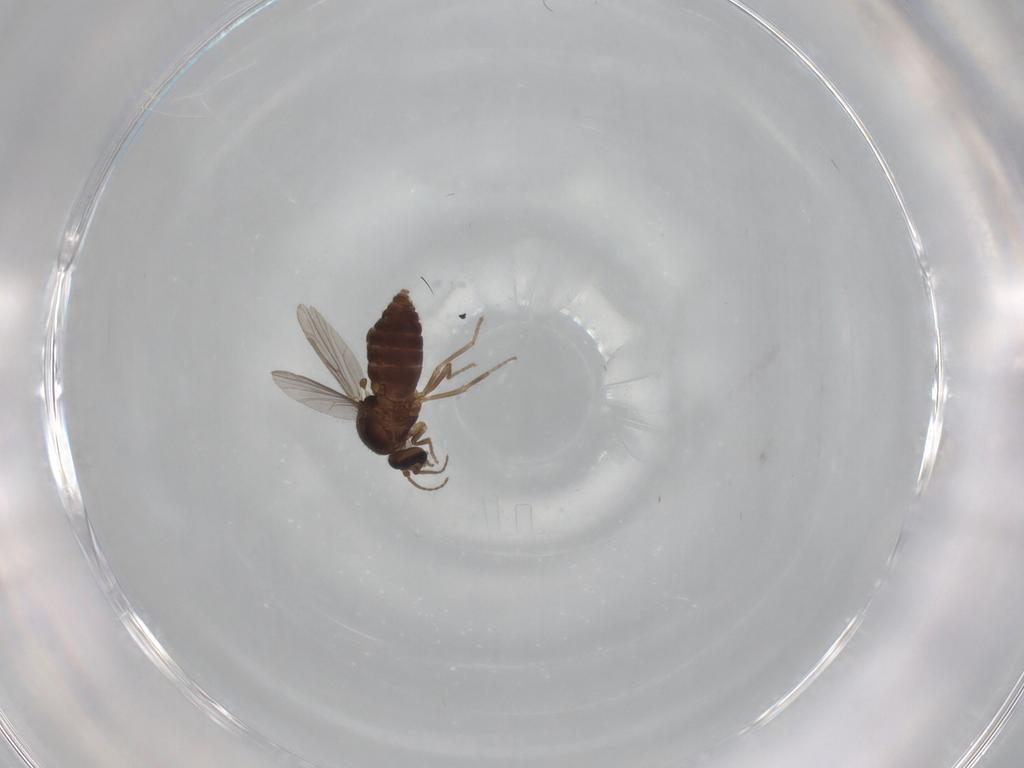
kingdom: Animalia
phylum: Arthropoda
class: Insecta
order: Diptera
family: Ceratopogonidae
